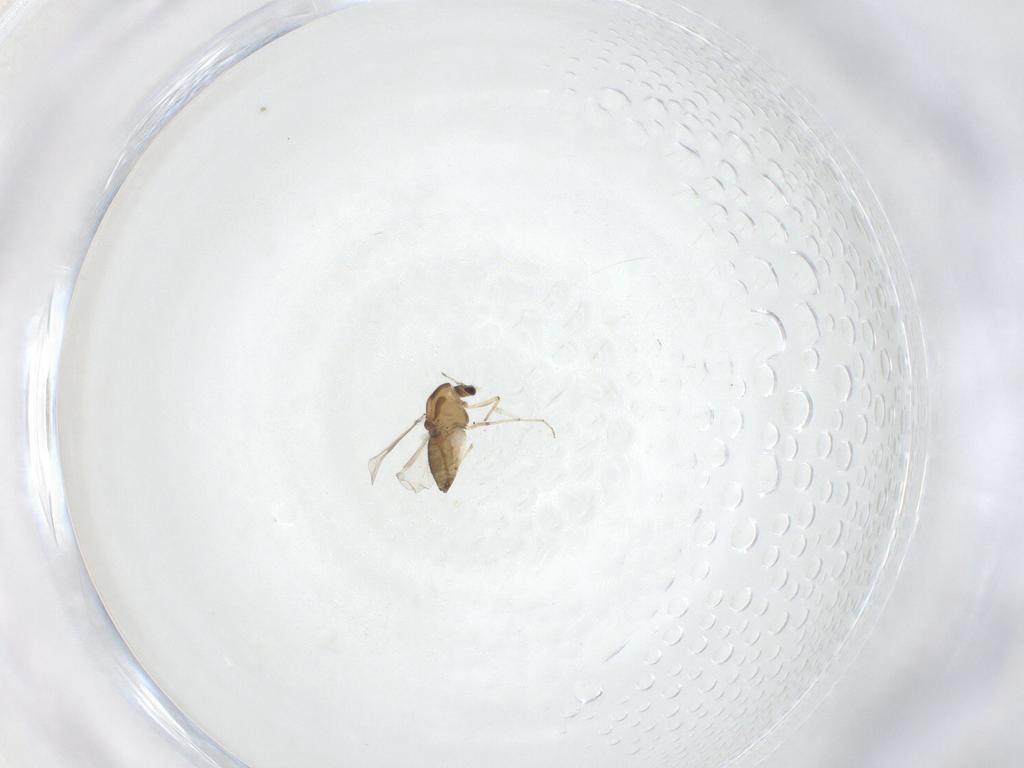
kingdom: Animalia
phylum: Arthropoda
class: Insecta
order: Diptera
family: Chironomidae
